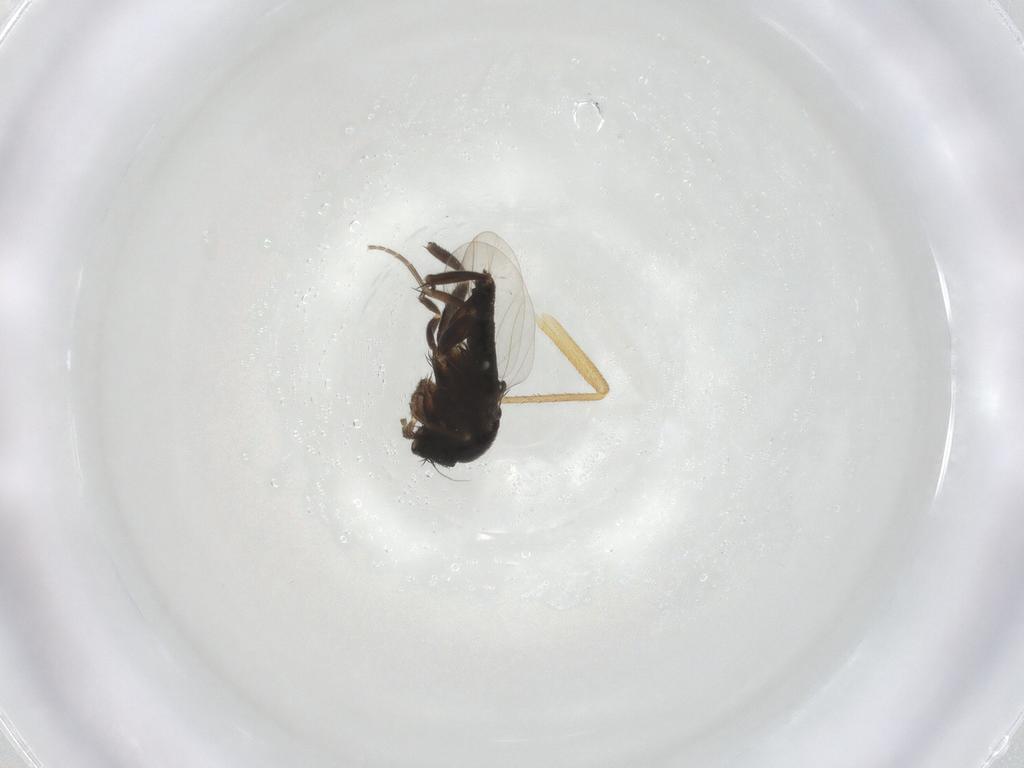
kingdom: Animalia
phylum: Arthropoda
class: Insecta
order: Diptera
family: Phoridae
